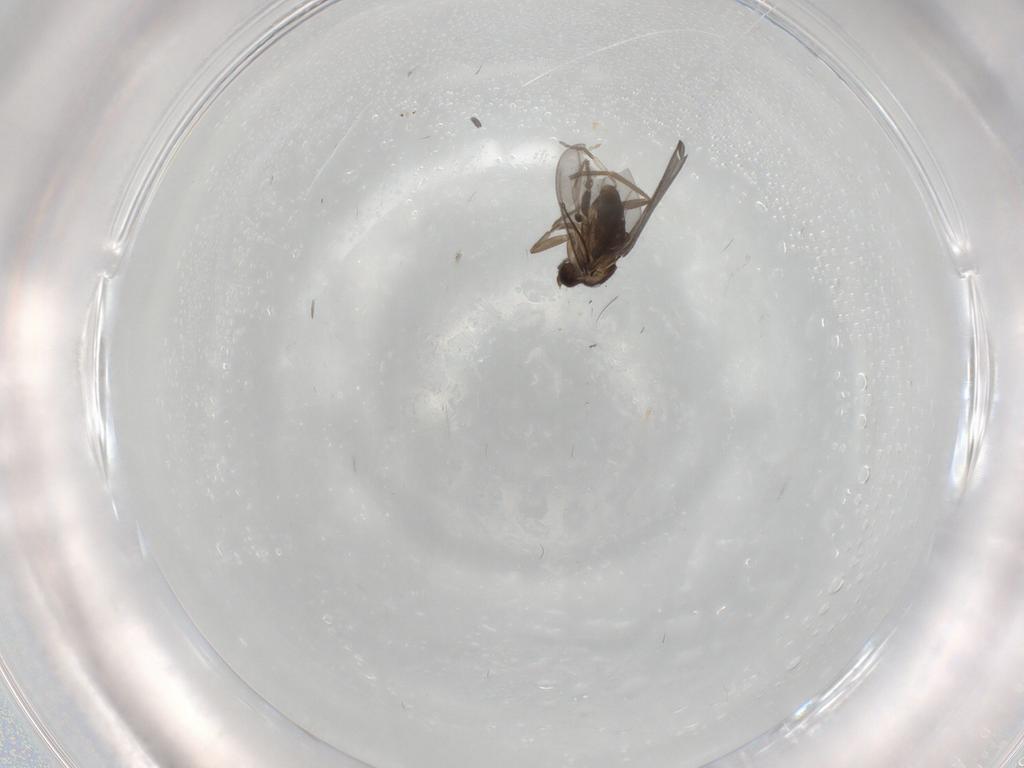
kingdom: Animalia
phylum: Arthropoda
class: Insecta
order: Diptera
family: Phoridae
